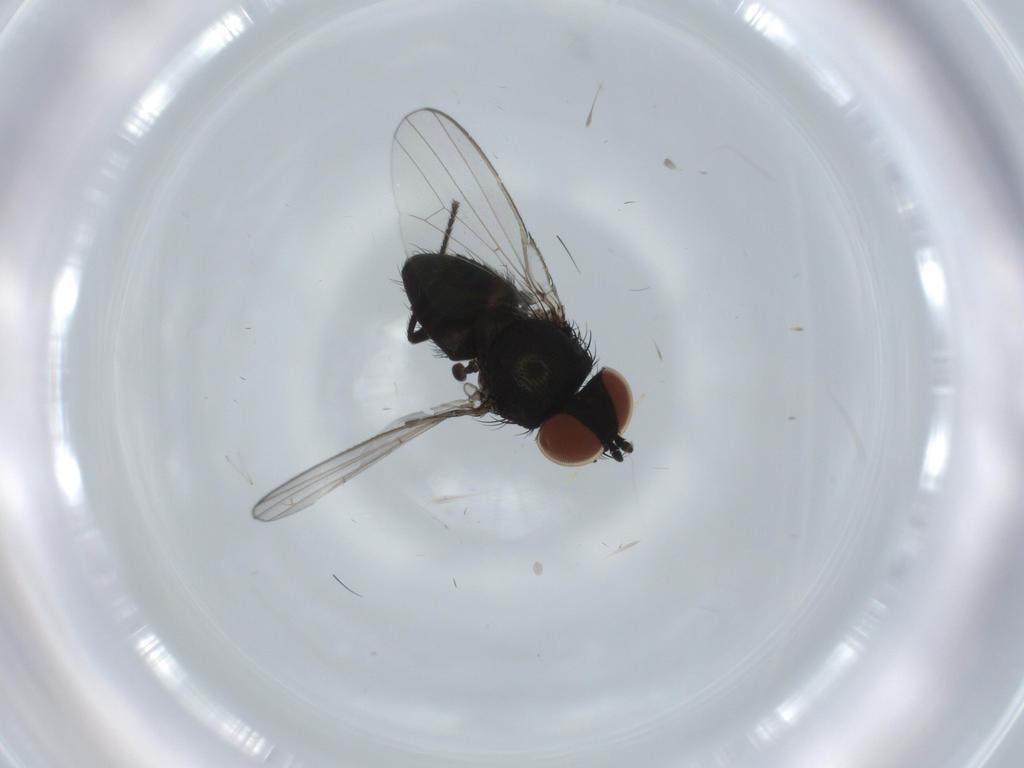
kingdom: Animalia
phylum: Arthropoda
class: Insecta
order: Diptera
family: Milichiidae
